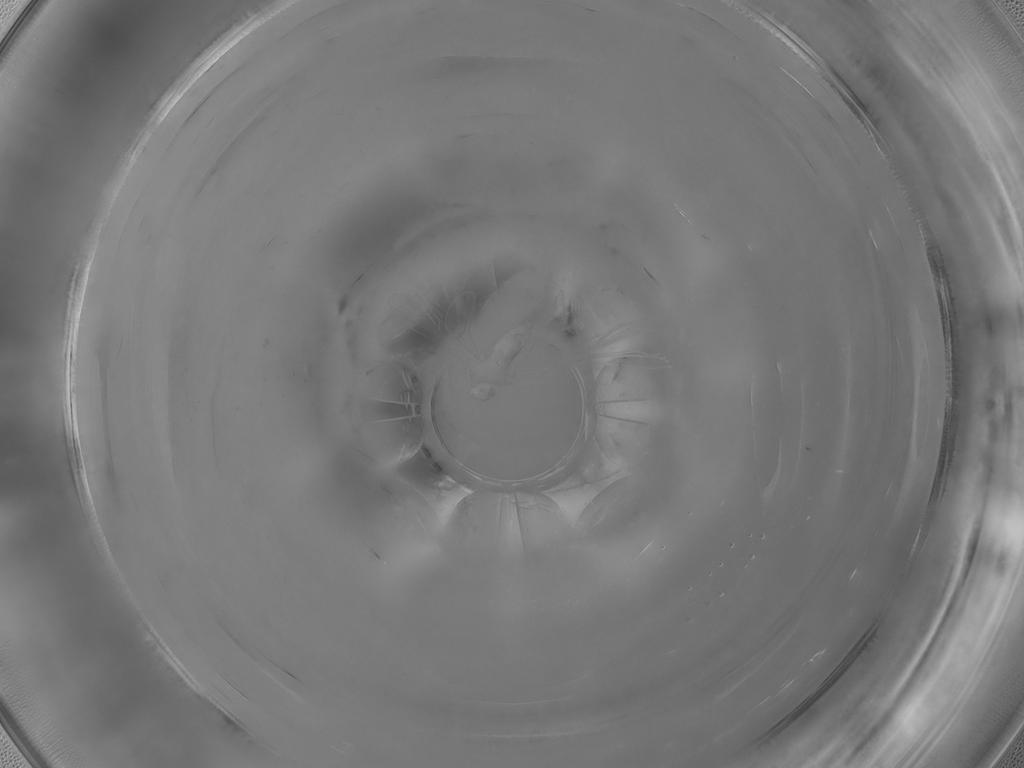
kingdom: Animalia
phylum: Arthropoda
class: Insecta
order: Diptera
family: Cecidomyiidae
